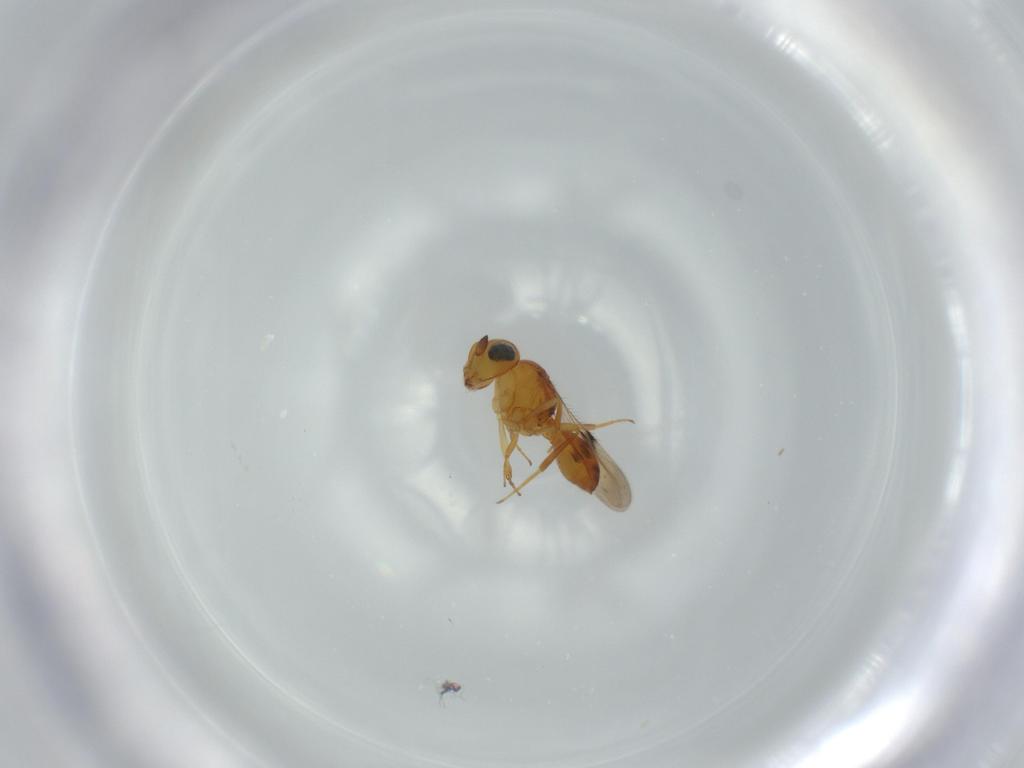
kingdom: Animalia
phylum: Arthropoda
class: Insecta
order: Hymenoptera
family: Scelionidae
